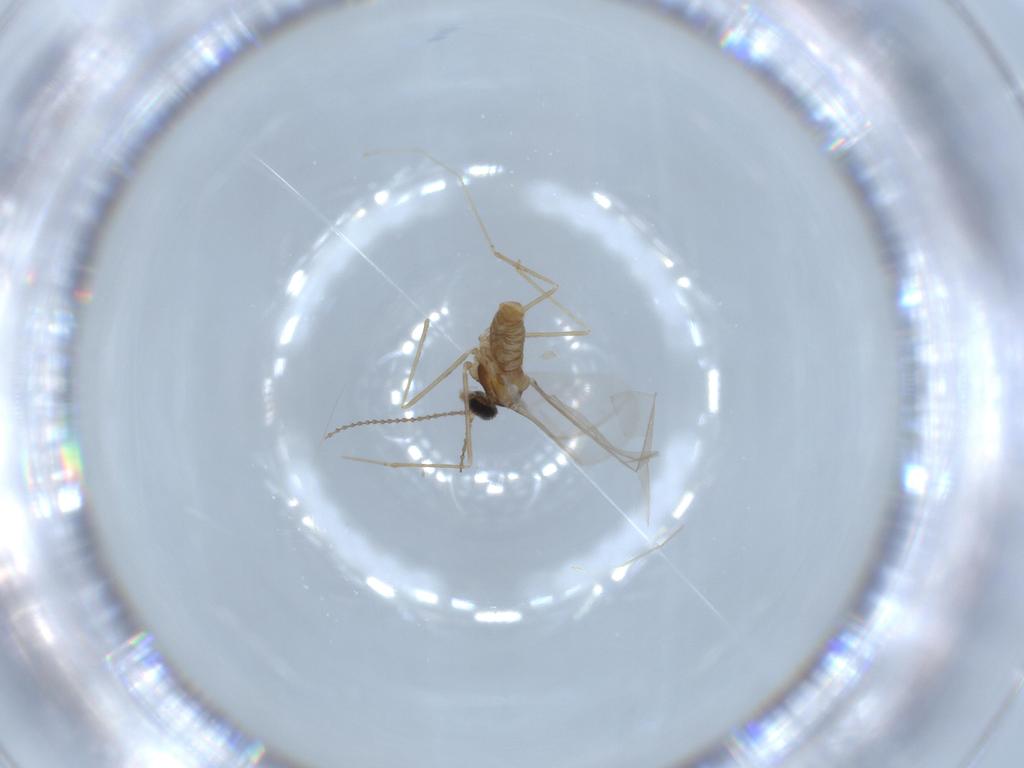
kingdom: Animalia
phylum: Arthropoda
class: Insecta
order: Diptera
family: Cecidomyiidae
